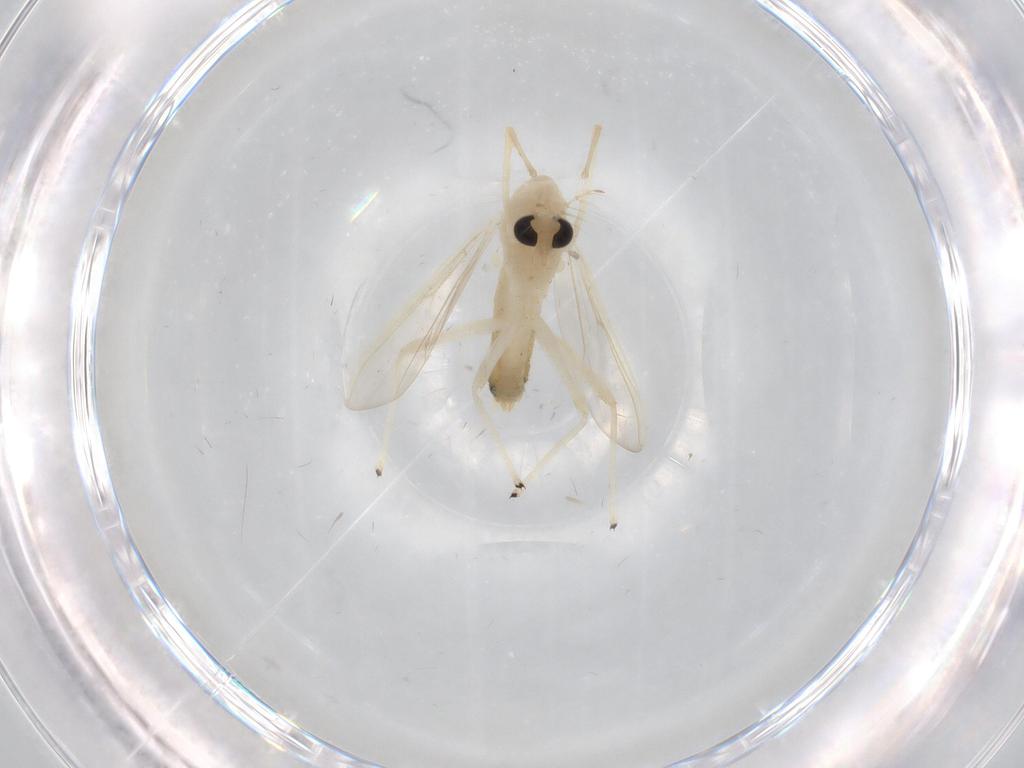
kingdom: Animalia
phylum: Arthropoda
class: Insecta
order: Diptera
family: Chironomidae
